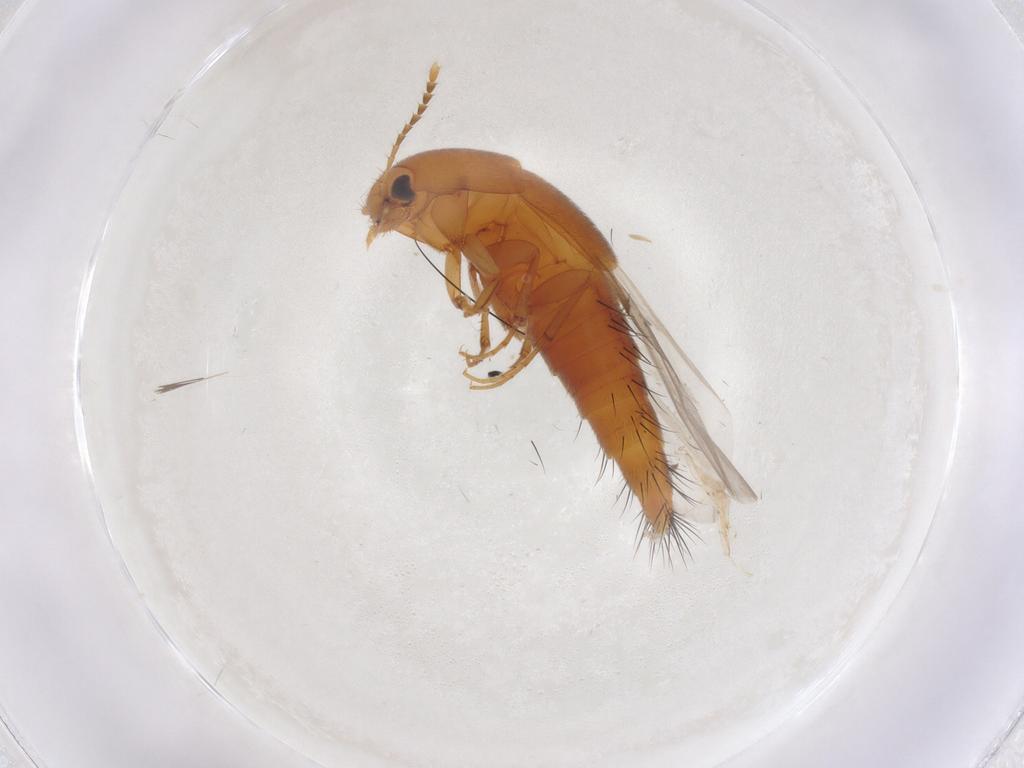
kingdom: Animalia
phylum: Arthropoda
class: Insecta
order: Coleoptera
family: Staphylinidae
